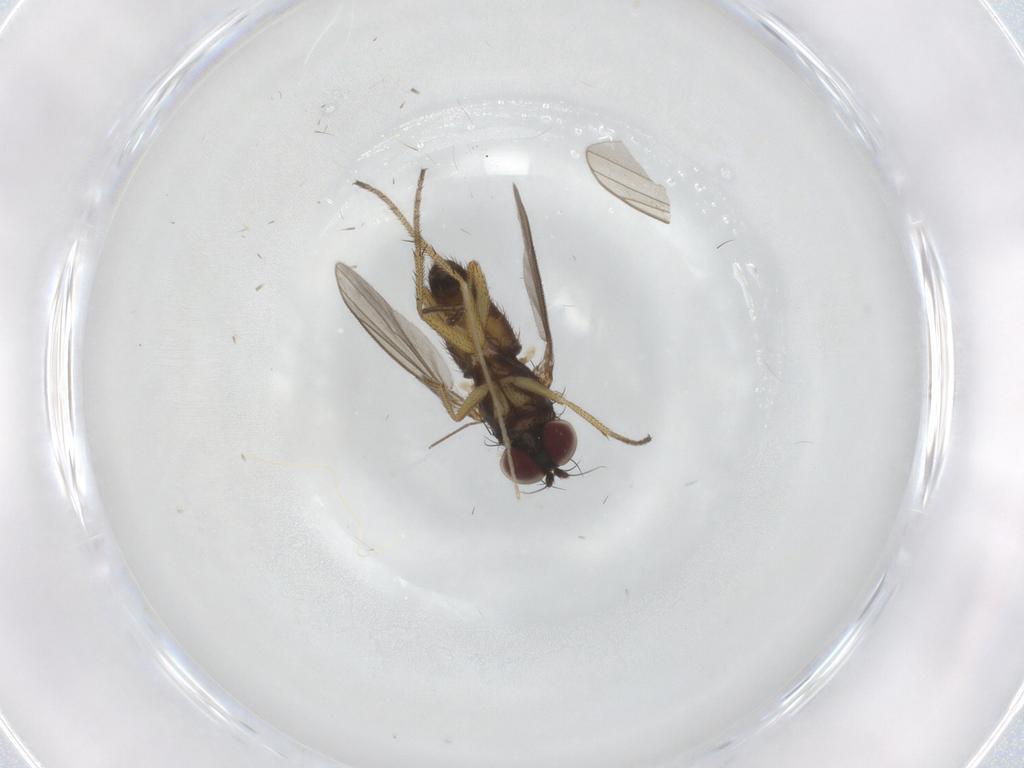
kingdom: Animalia
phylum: Arthropoda
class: Insecta
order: Diptera
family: Chironomidae
